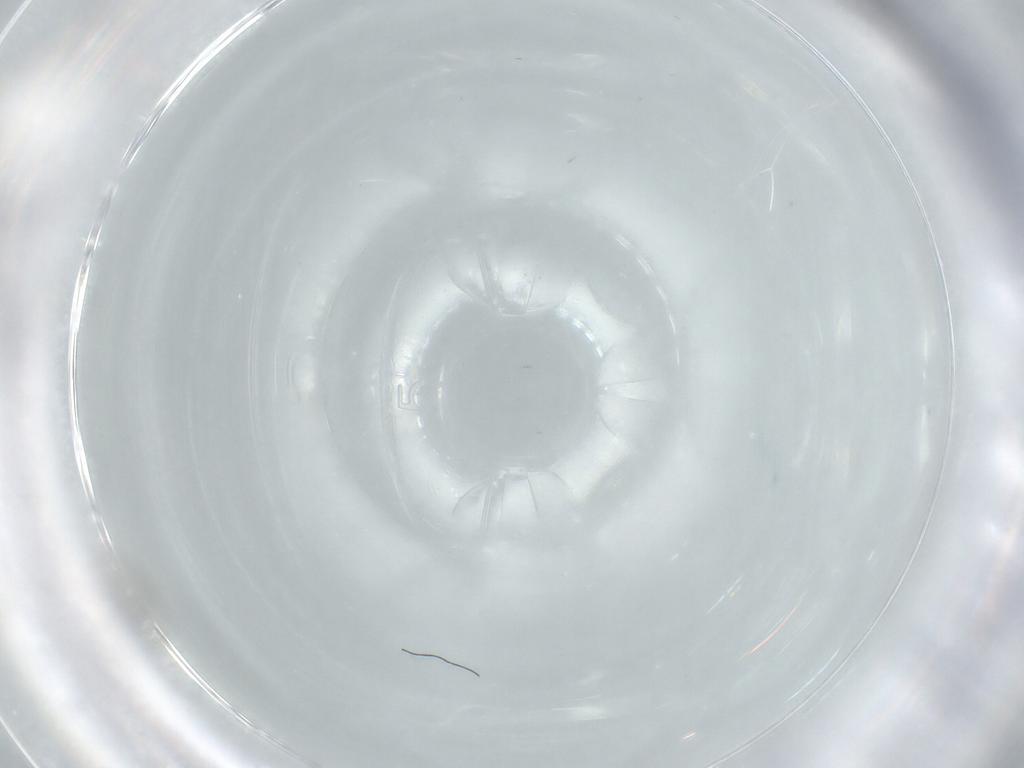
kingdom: Animalia
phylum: Arthropoda
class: Insecta
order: Diptera
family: Cecidomyiidae
